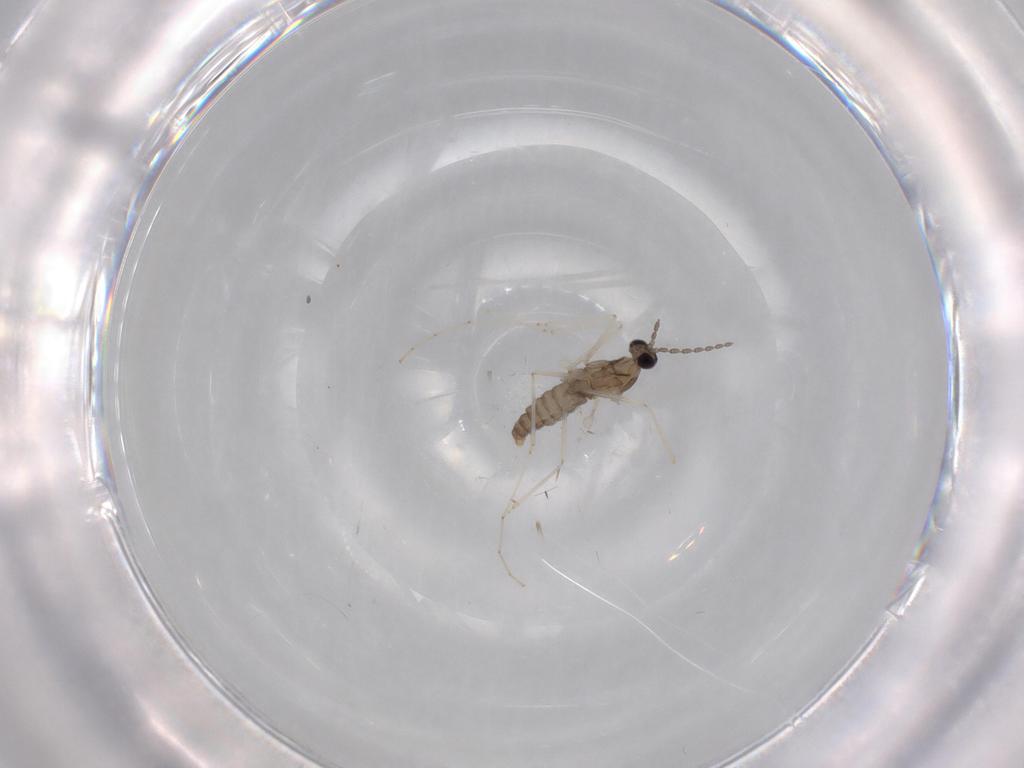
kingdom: Animalia
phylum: Arthropoda
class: Insecta
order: Diptera
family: Cecidomyiidae
